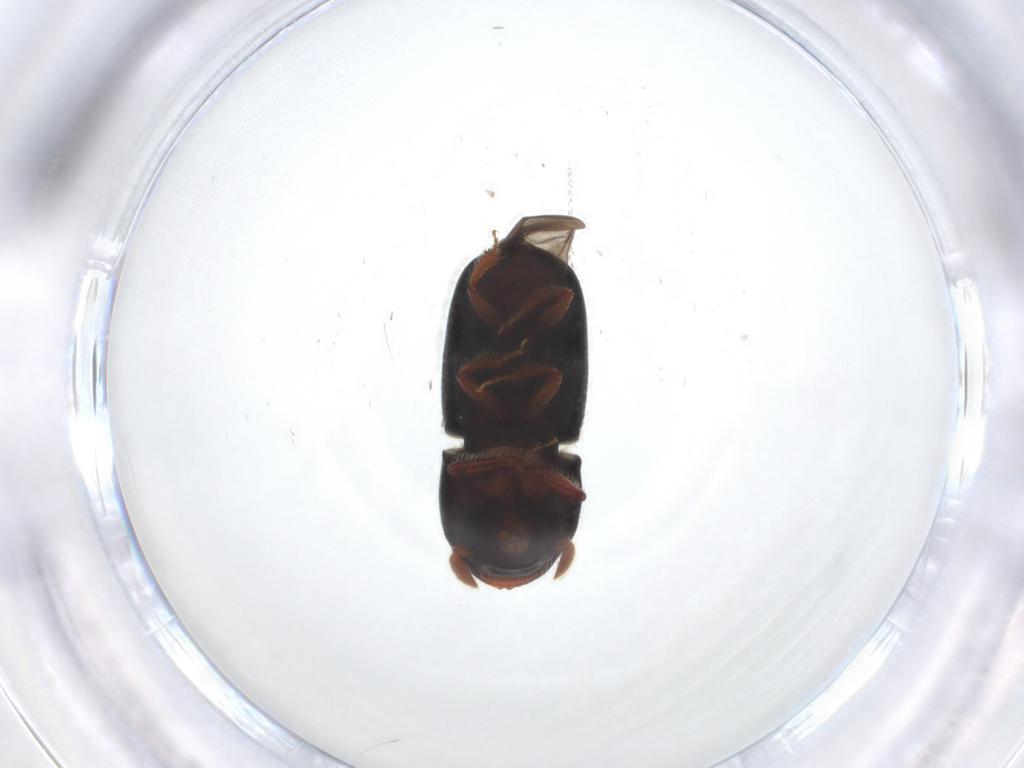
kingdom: Animalia
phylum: Arthropoda
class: Insecta
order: Coleoptera
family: Curculionidae
